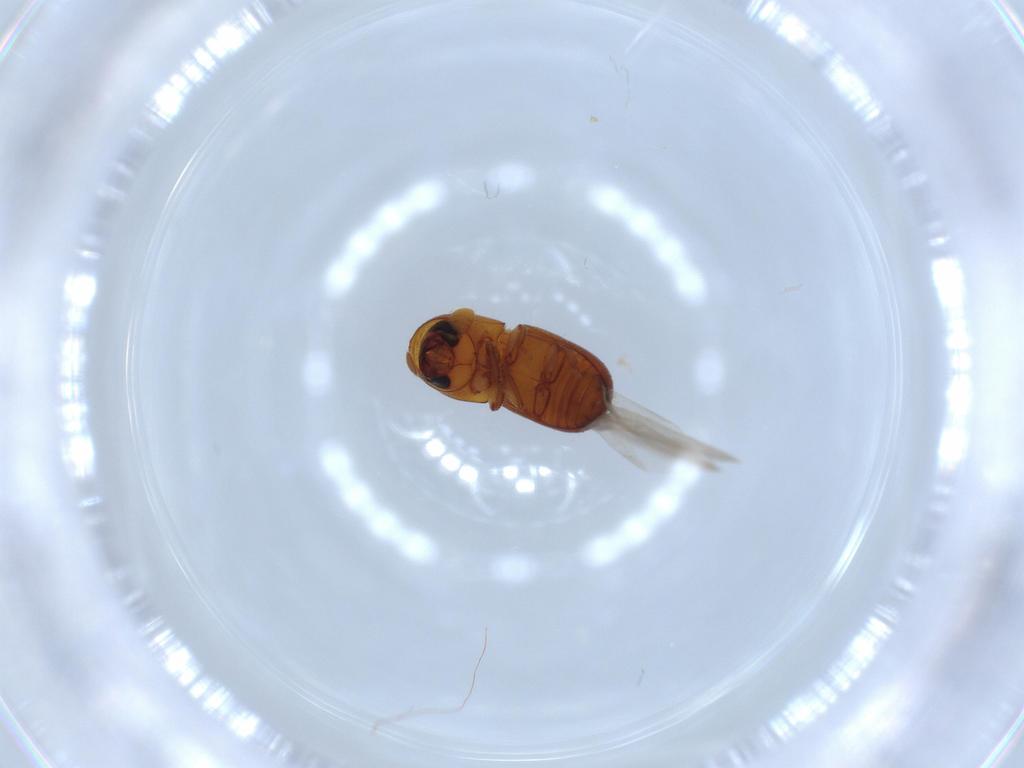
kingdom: Animalia
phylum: Arthropoda
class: Insecta
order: Coleoptera
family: Curculionidae
